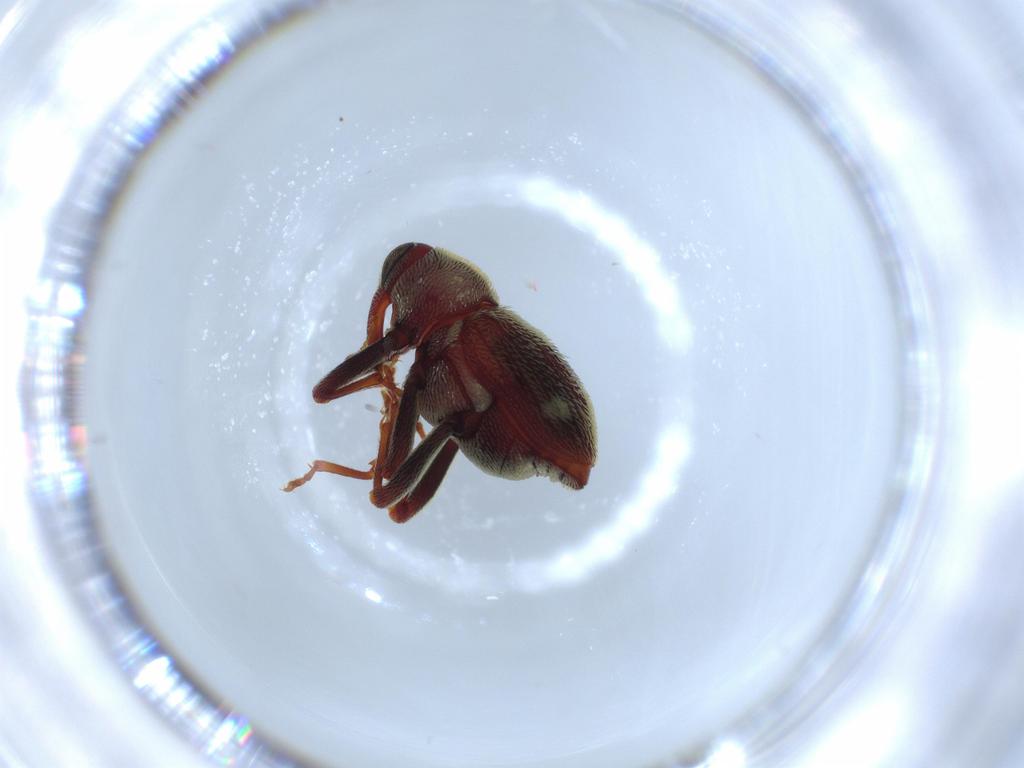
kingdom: Animalia
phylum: Arthropoda
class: Insecta
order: Coleoptera
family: Curculionidae
